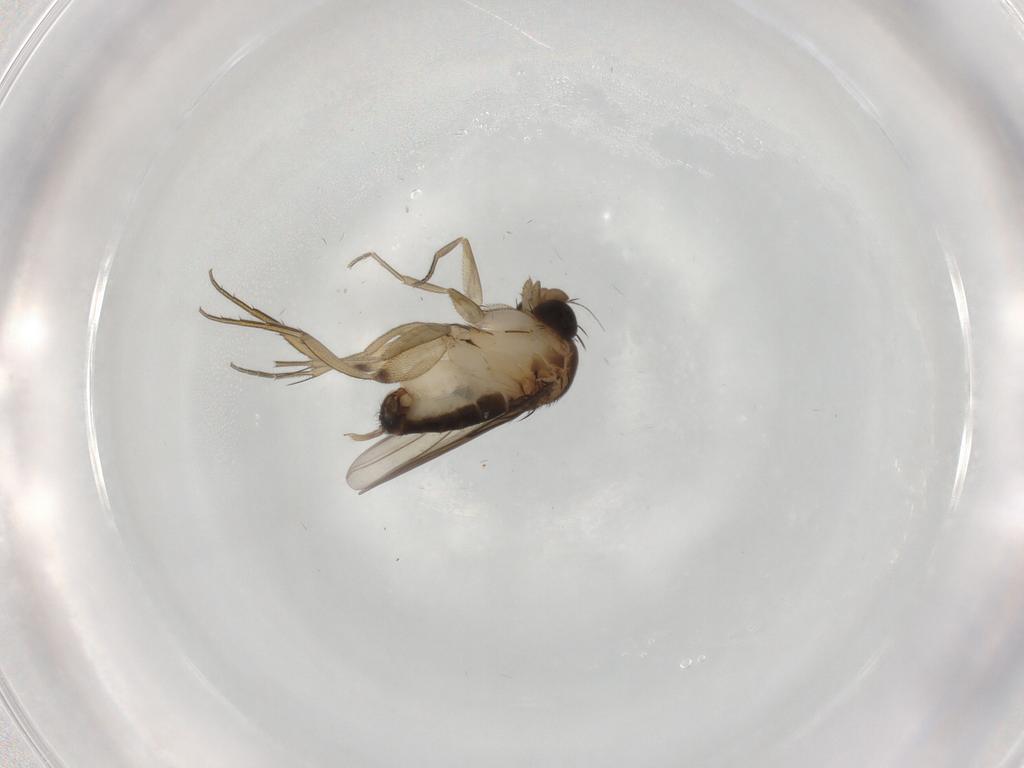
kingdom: Animalia
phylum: Arthropoda
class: Insecta
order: Diptera
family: Phoridae
